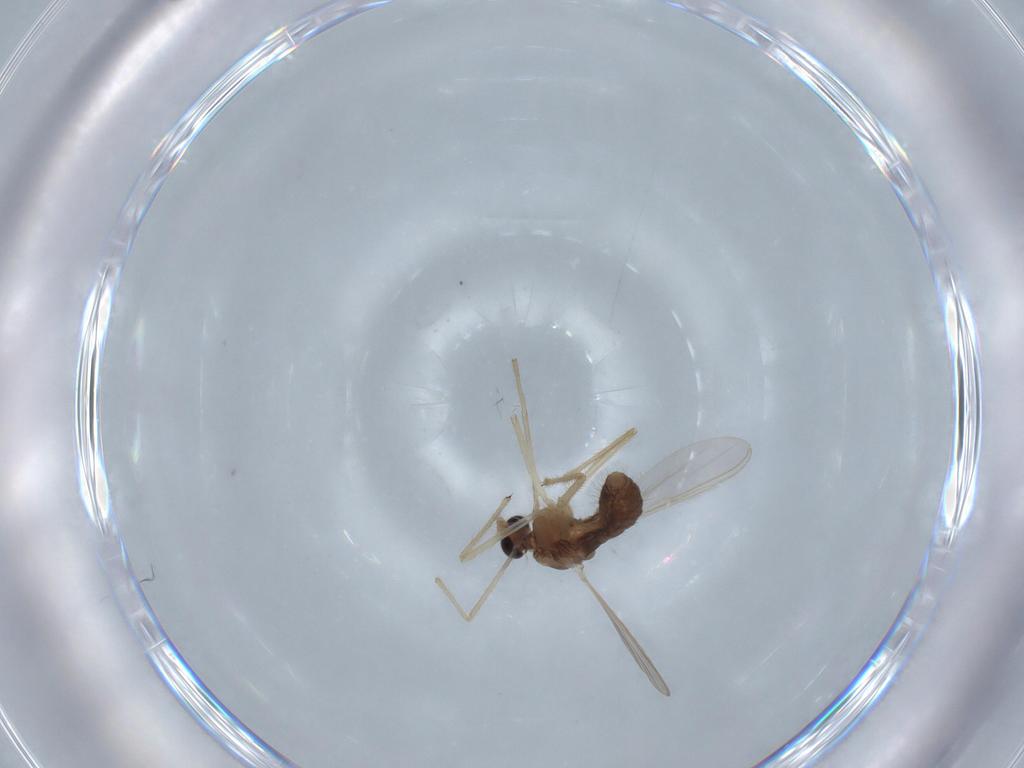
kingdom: Animalia
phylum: Arthropoda
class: Insecta
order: Diptera
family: Chironomidae
